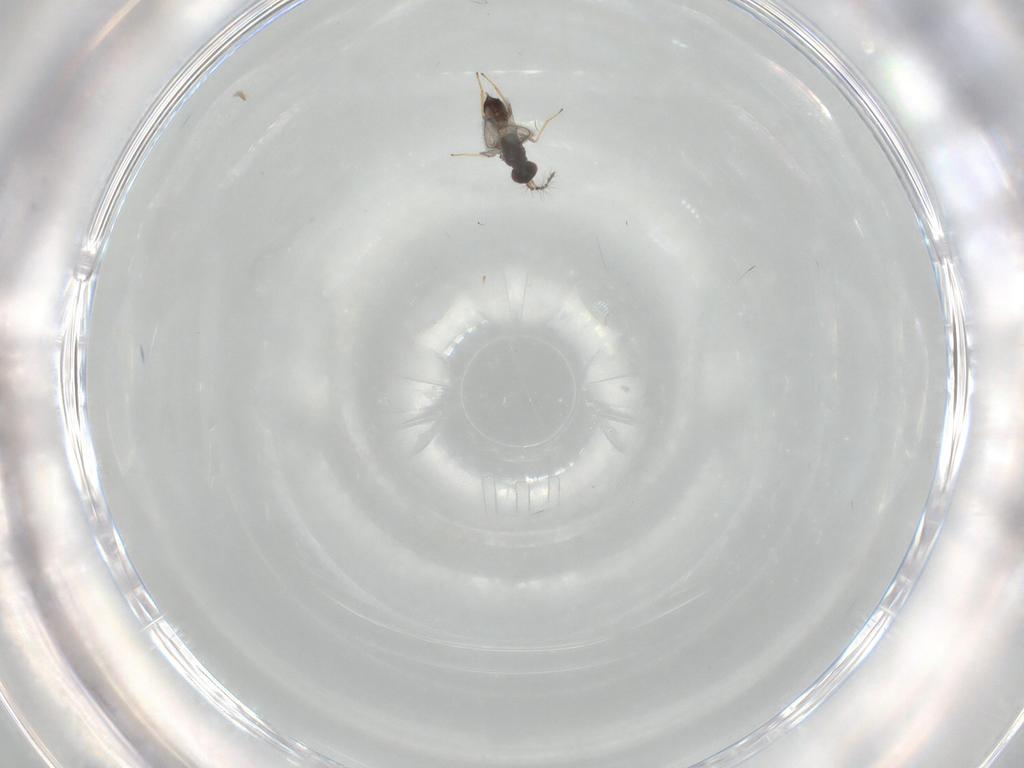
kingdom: Animalia
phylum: Arthropoda
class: Insecta
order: Hymenoptera
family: Eulophidae
